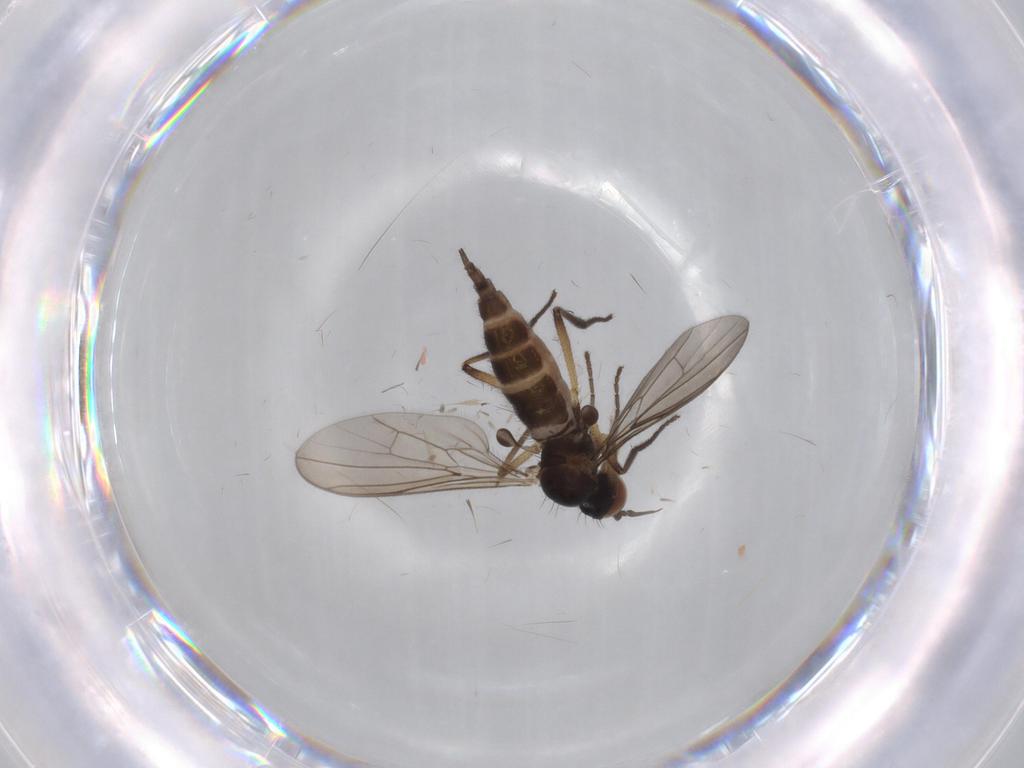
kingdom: Animalia
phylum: Arthropoda
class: Insecta
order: Diptera
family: Empididae
